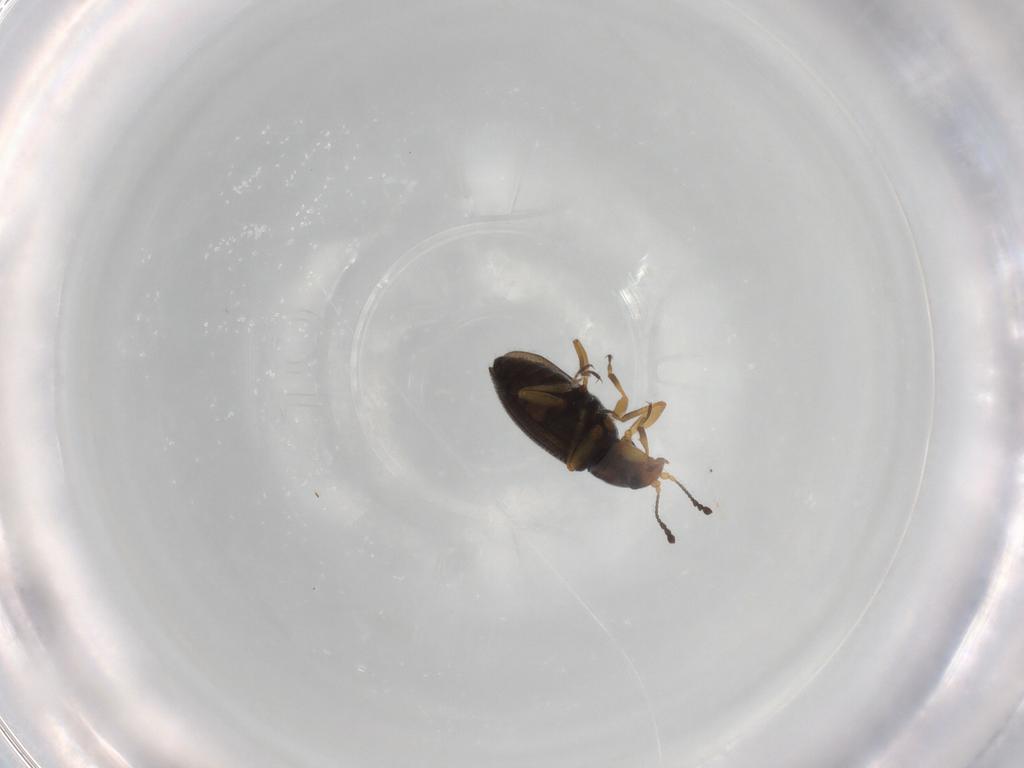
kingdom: Animalia
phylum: Arthropoda
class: Insecta
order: Coleoptera
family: Latridiidae
